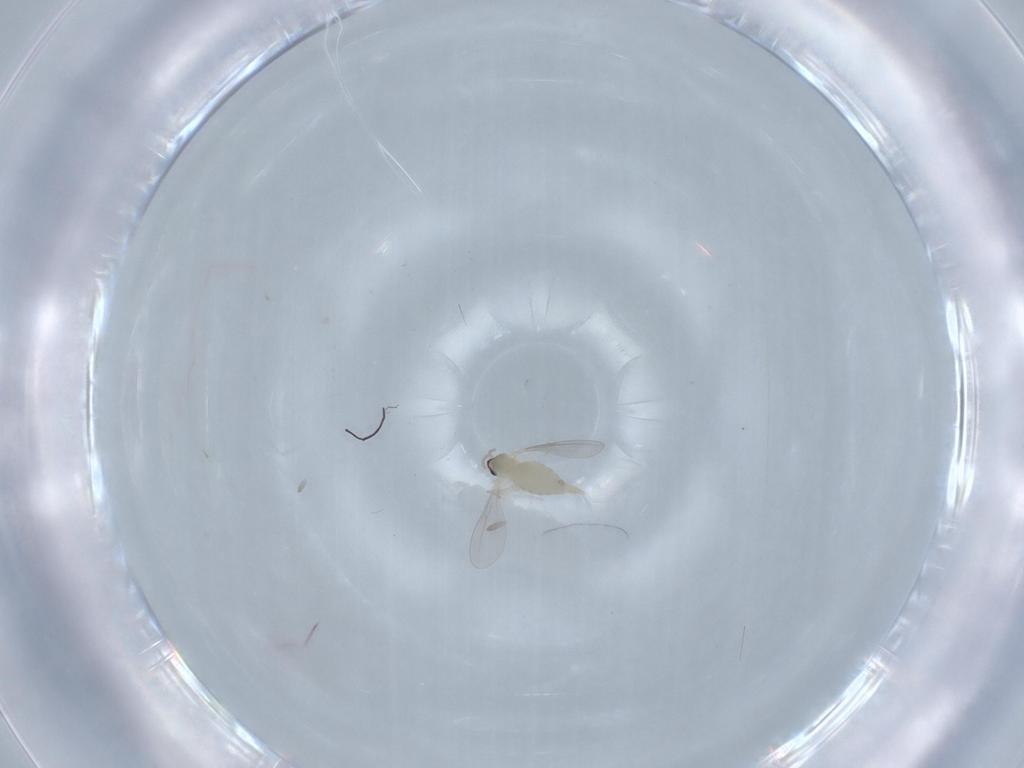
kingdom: Animalia
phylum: Arthropoda
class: Insecta
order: Diptera
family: Cecidomyiidae
